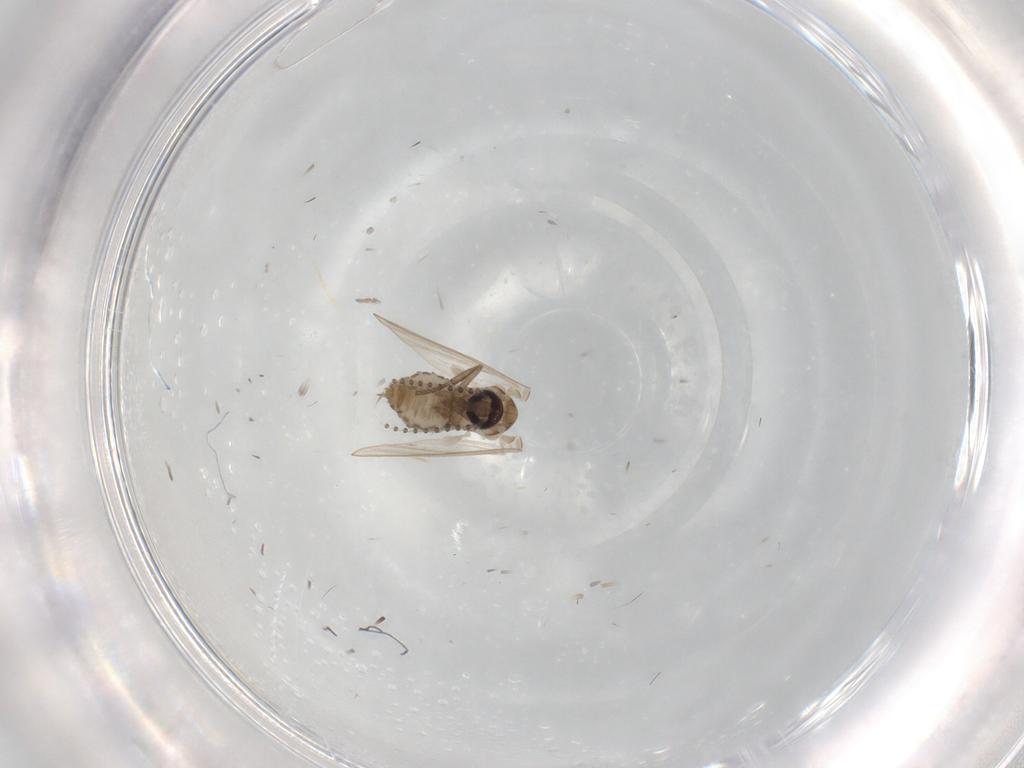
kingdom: Animalia
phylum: Arthropoda
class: Insecta
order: Diptera
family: Psychodidae
